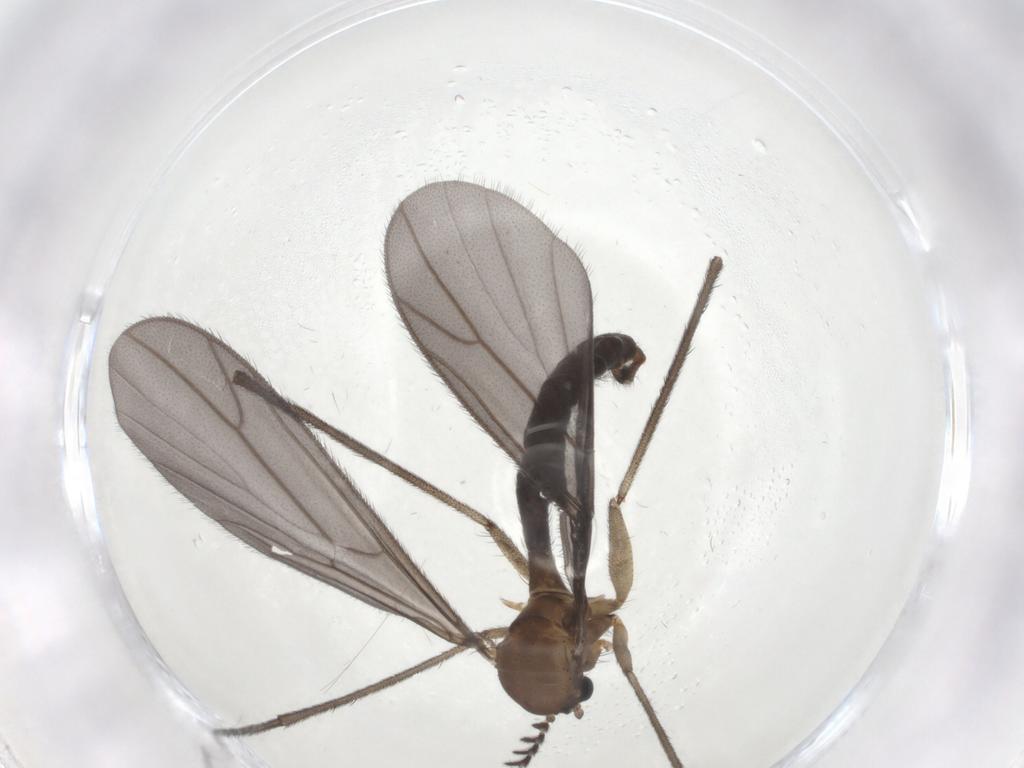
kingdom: Animalia
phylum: Arthropoda
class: Insecta
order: Diptera
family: Ditomyiidae
